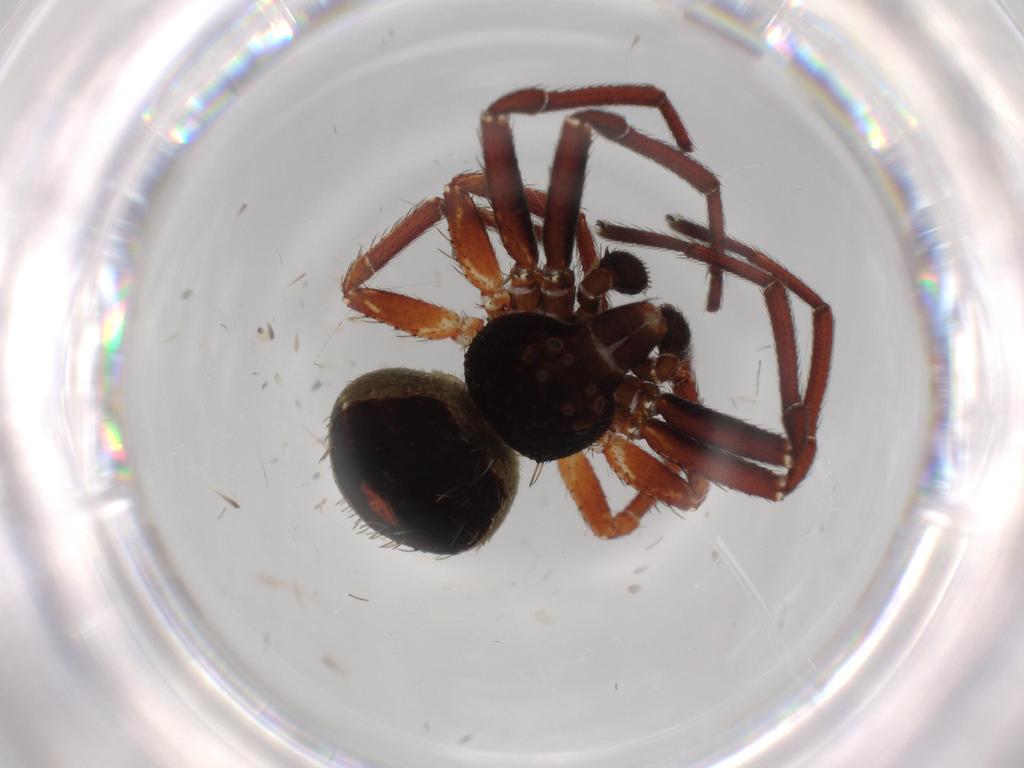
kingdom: Animalia
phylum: Arthropoda
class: Arachnida
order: Araneae
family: Thomisidae
